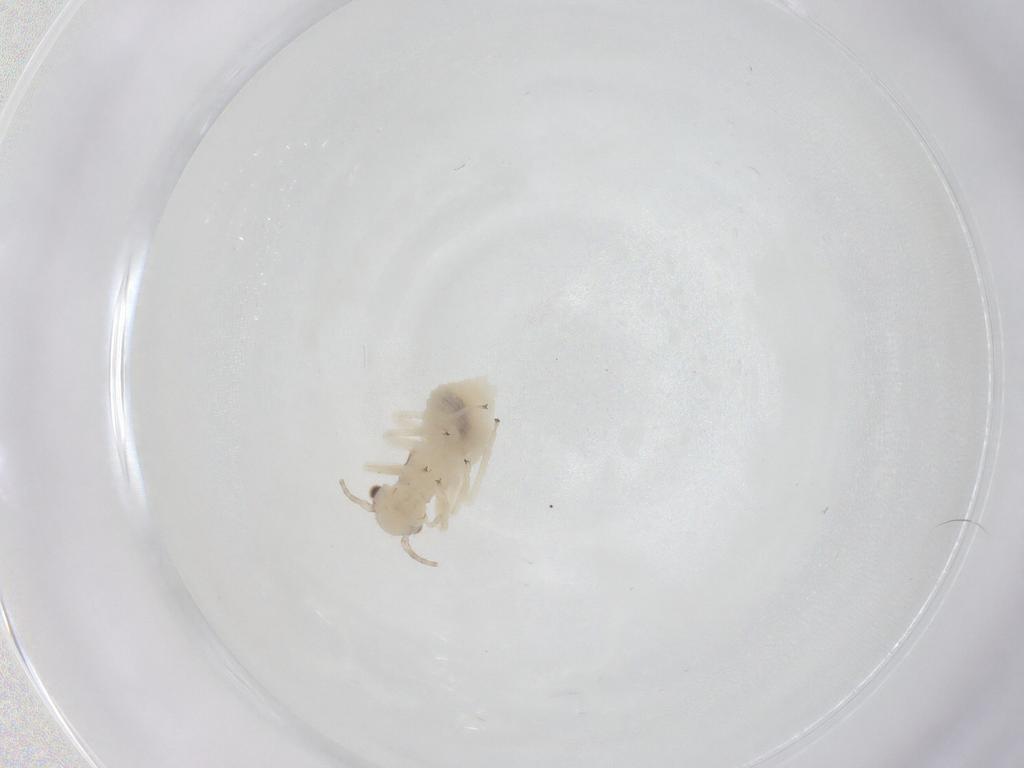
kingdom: Animalia
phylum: Arthropoda
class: Insecta
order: Psocodea
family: Amphipsocidae
